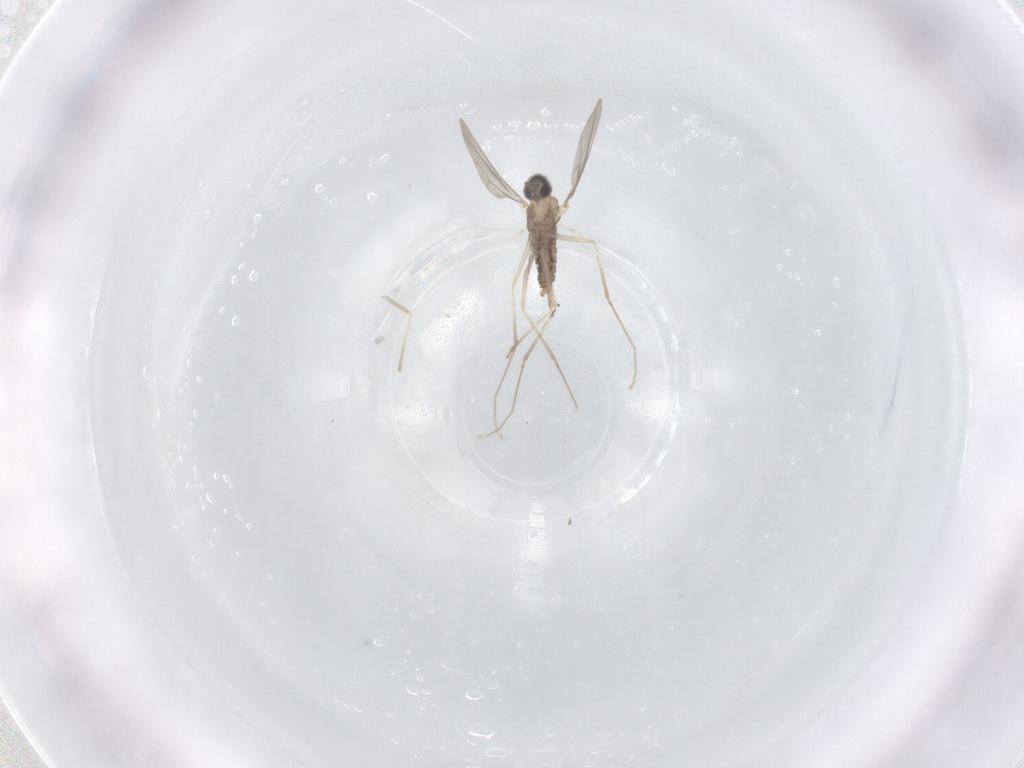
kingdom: Animalia
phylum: Arthropoda
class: Insecta
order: Diptera
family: Cecidomyiidae
